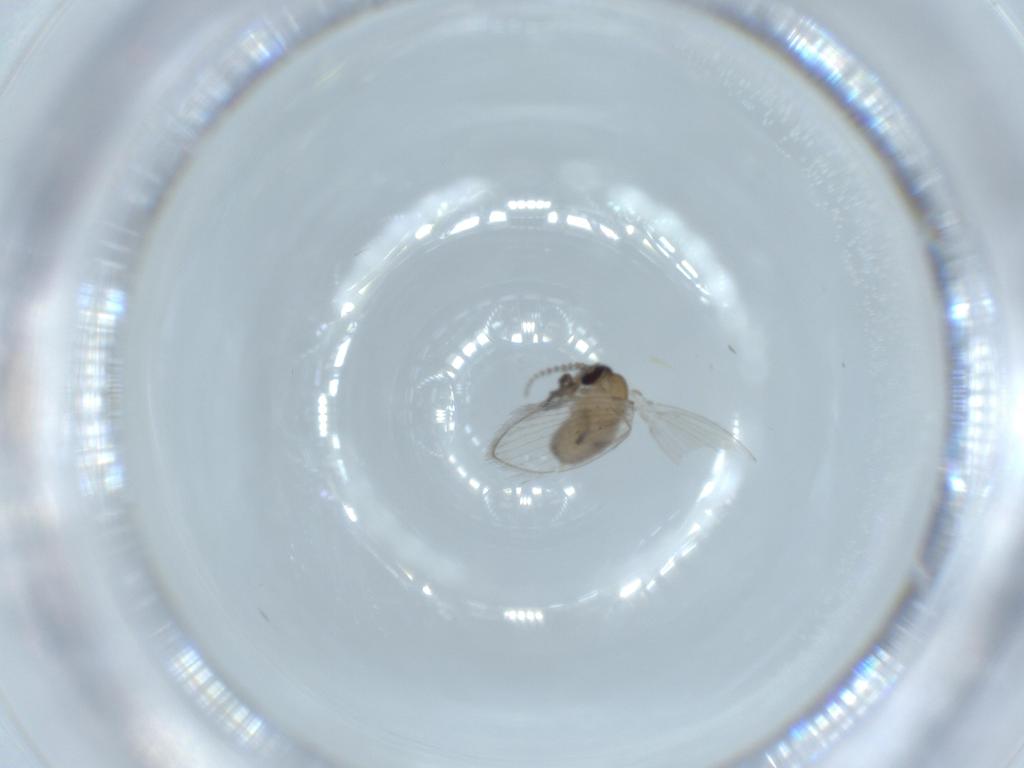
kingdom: Animalia
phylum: Arthropoda
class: Insecta
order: Diptera
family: Psychodidae
